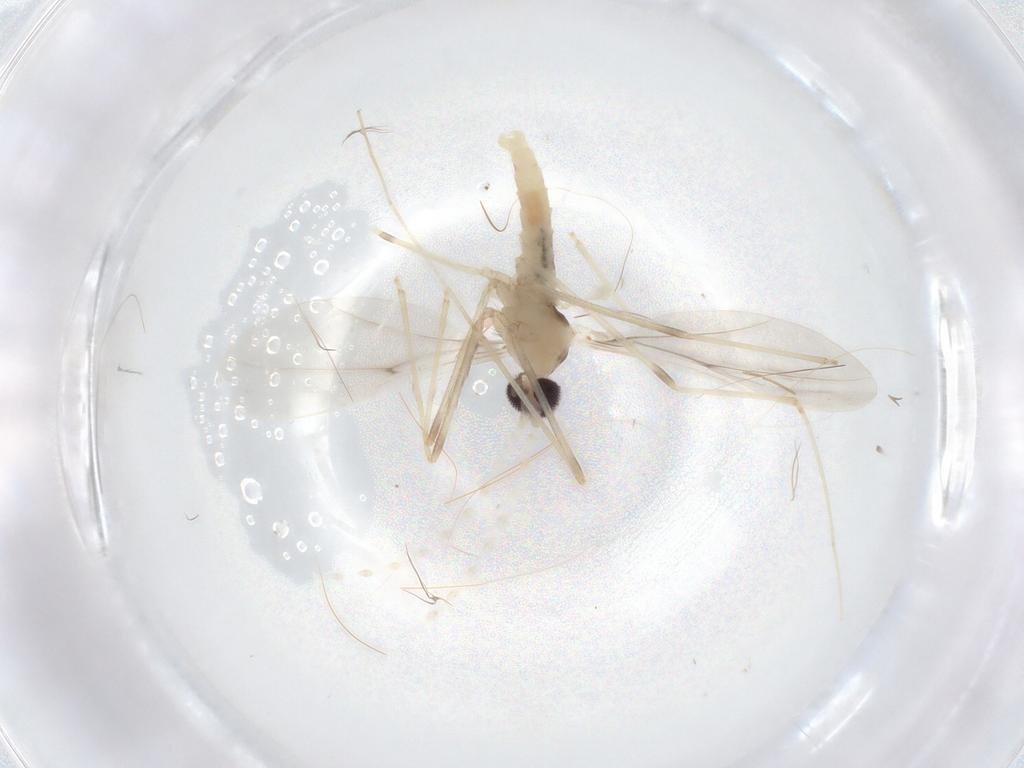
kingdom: Animalia
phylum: Arthropoda
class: Insecta
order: Diptera
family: Cecidomyiidae
